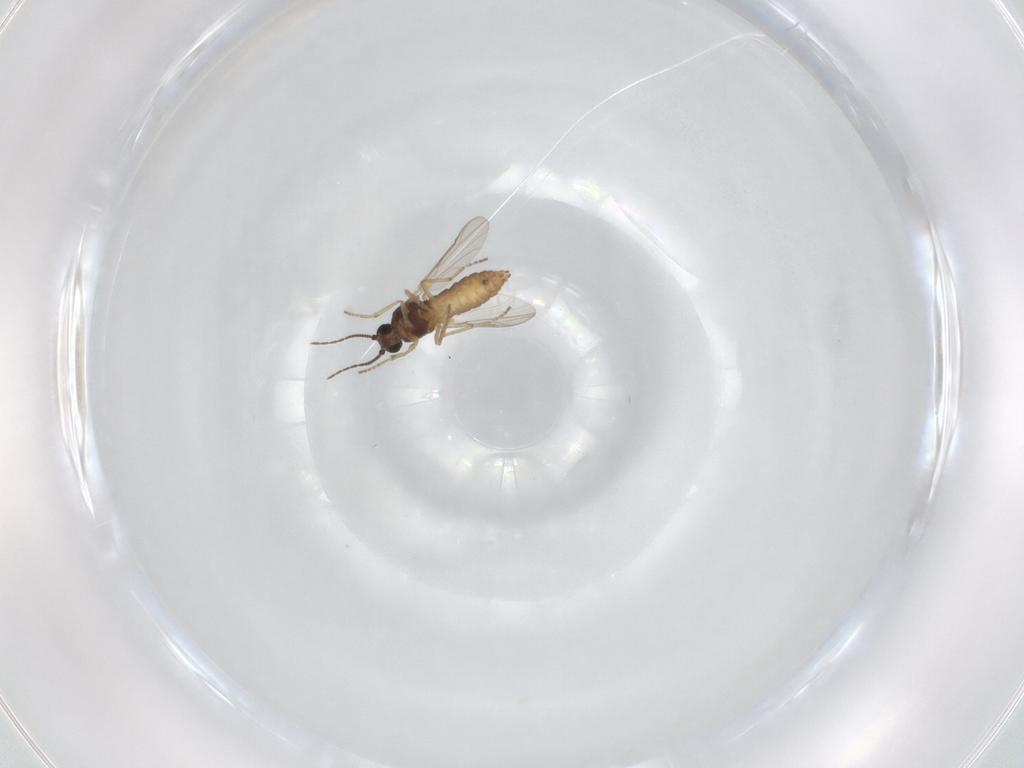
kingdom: Animalia
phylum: Arthropoda
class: Insecta
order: Diptera
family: Ceratopogonidae
